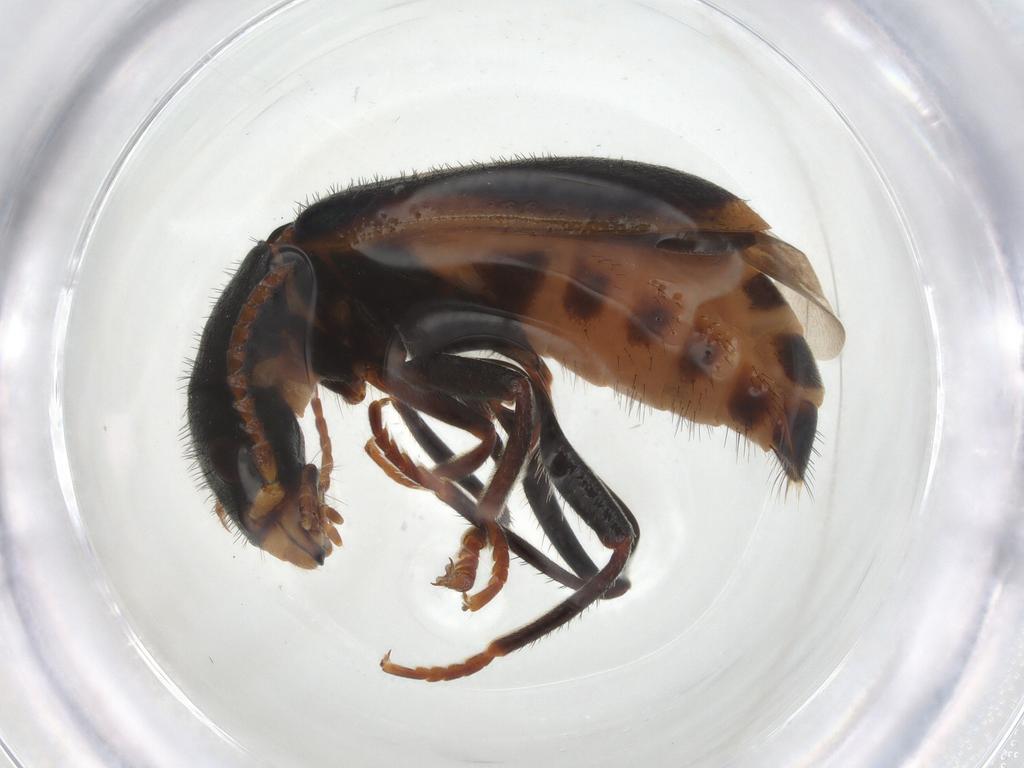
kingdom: Animalia
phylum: Arthropoda
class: Insecta
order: Coleoptera
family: Melyridae
